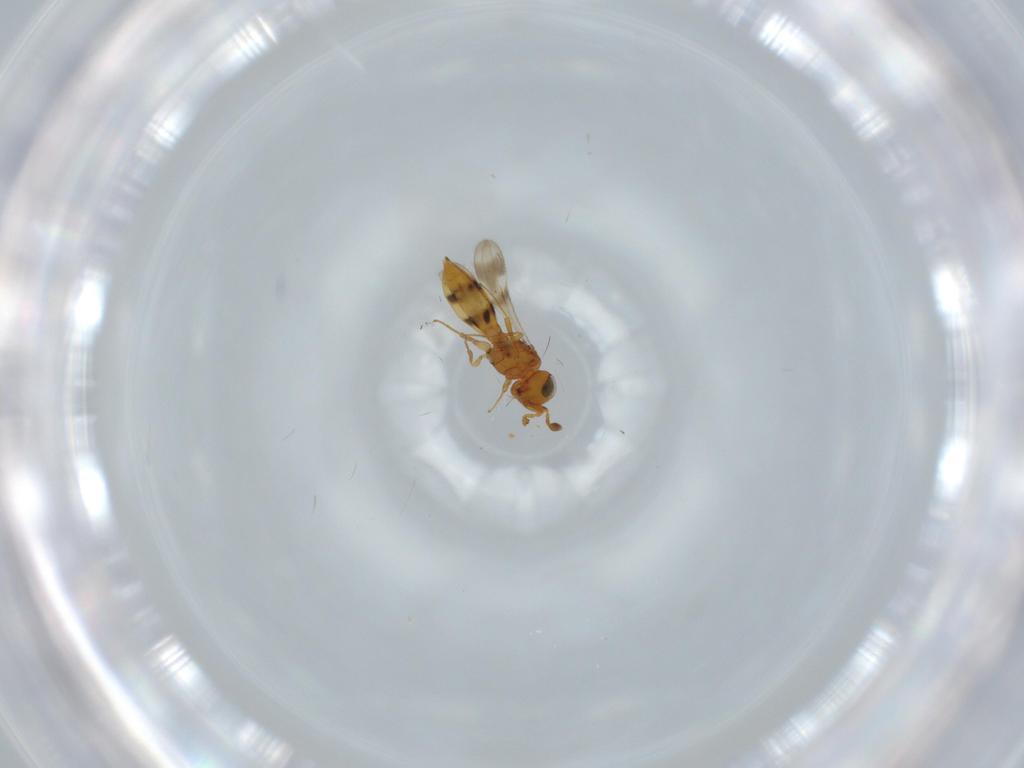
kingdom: Animalia
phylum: Arthropoda
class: Insecta
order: Hymenoptera
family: Scelionidae
